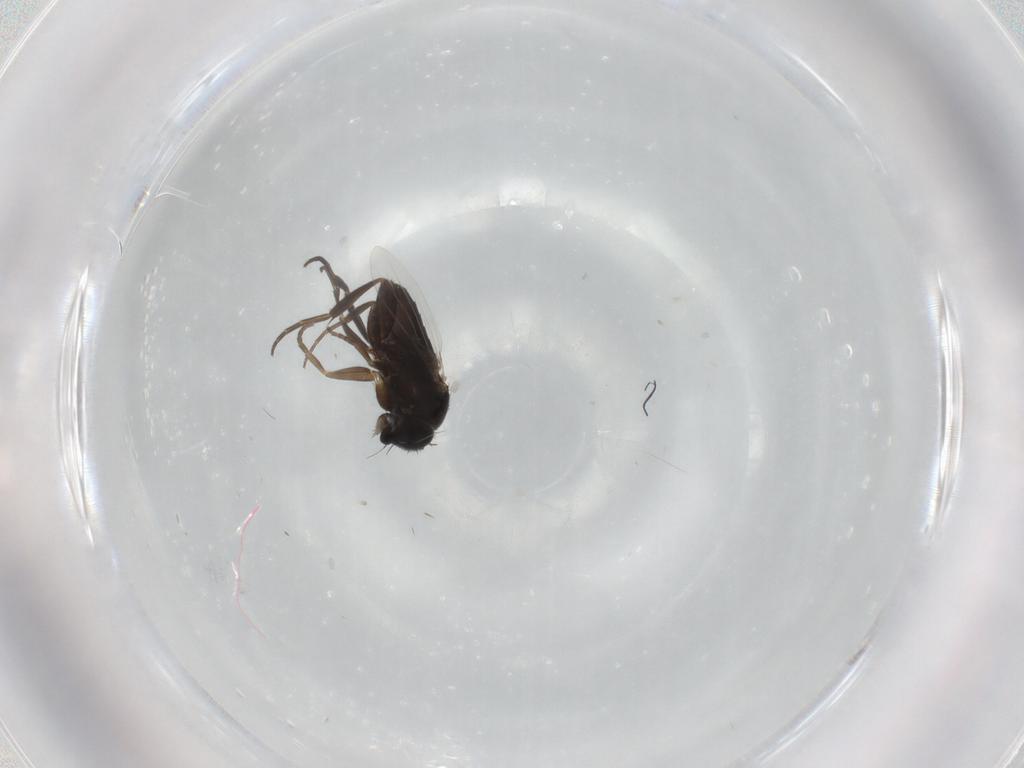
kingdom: Animalia
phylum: Arthropoda
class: Insecta
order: Diptera
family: Phoridae
